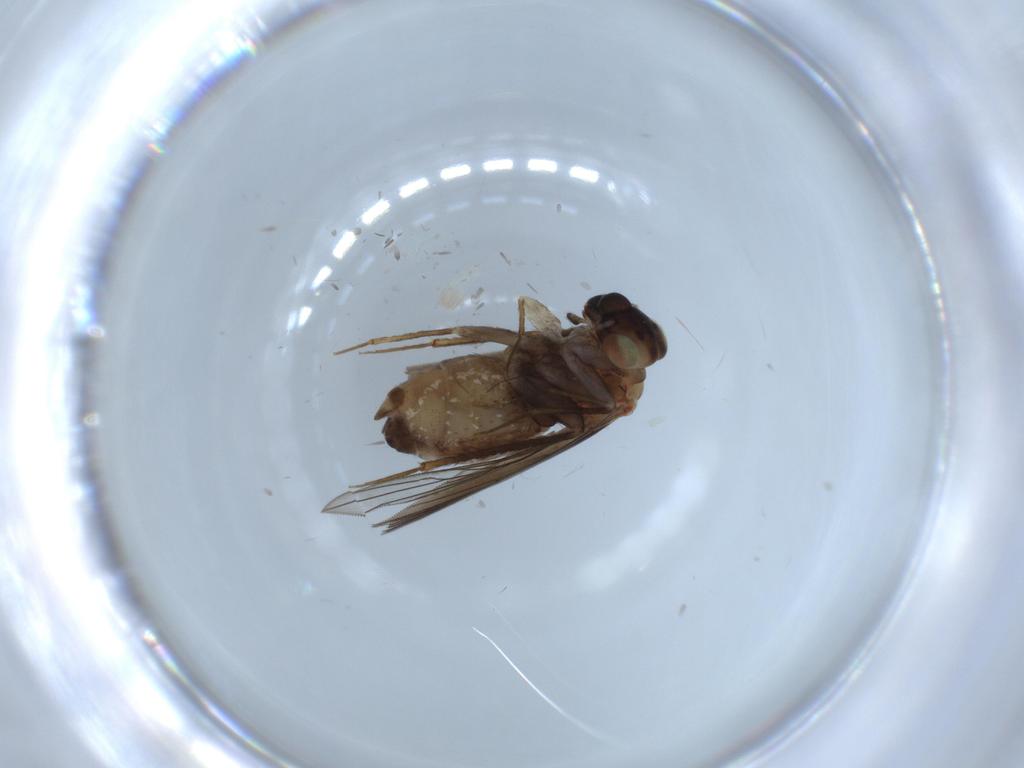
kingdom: Animalia
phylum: Arthropoda
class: Insecta
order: Psocodea
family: Lepidopsocidae
